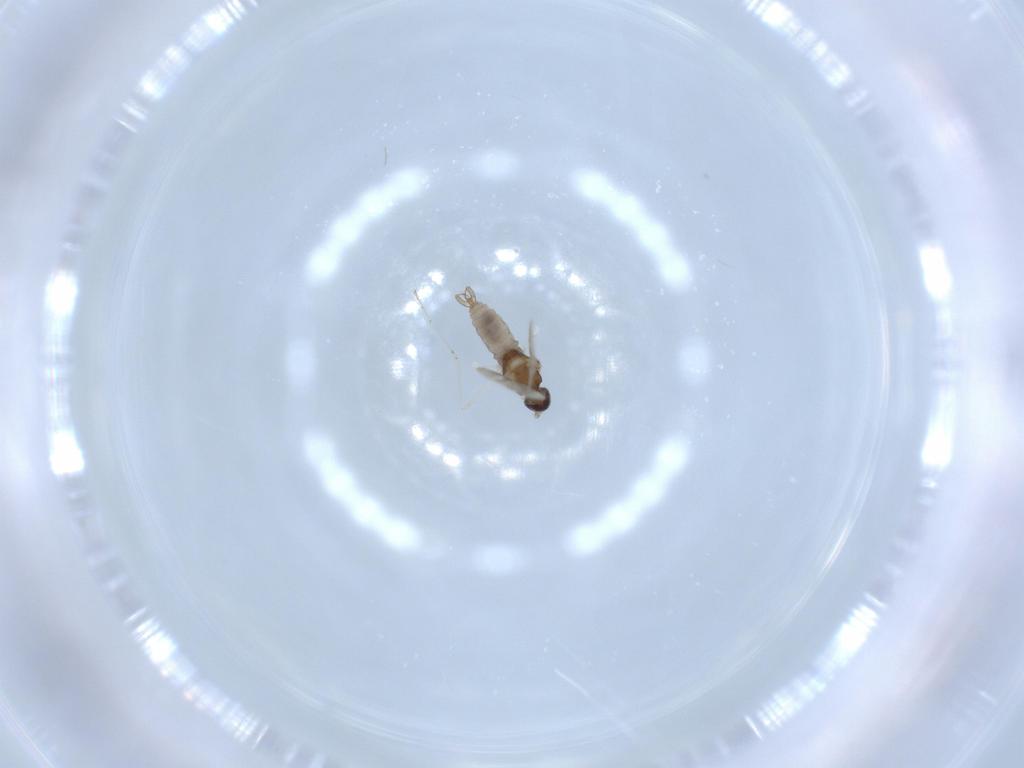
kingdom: Animalia
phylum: Arthropoda
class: Insecta
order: Diptera
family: Cecidomyiidae
